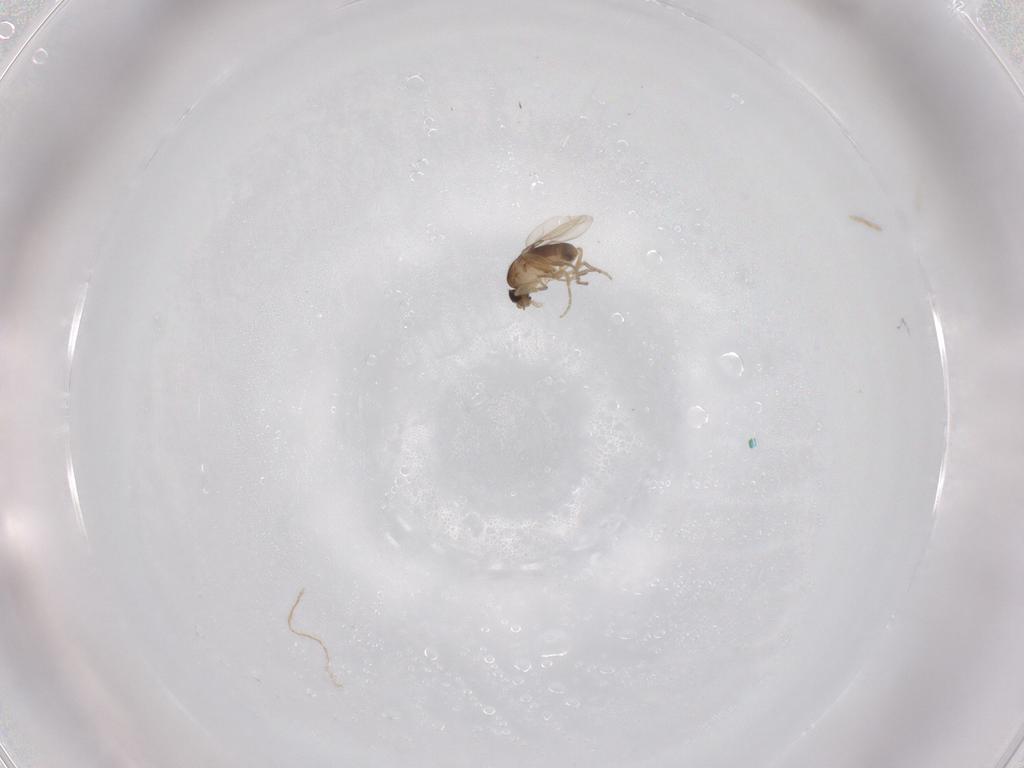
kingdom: Animalia
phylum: Arthropoda
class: Insecta
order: Diptera
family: Phoridae
